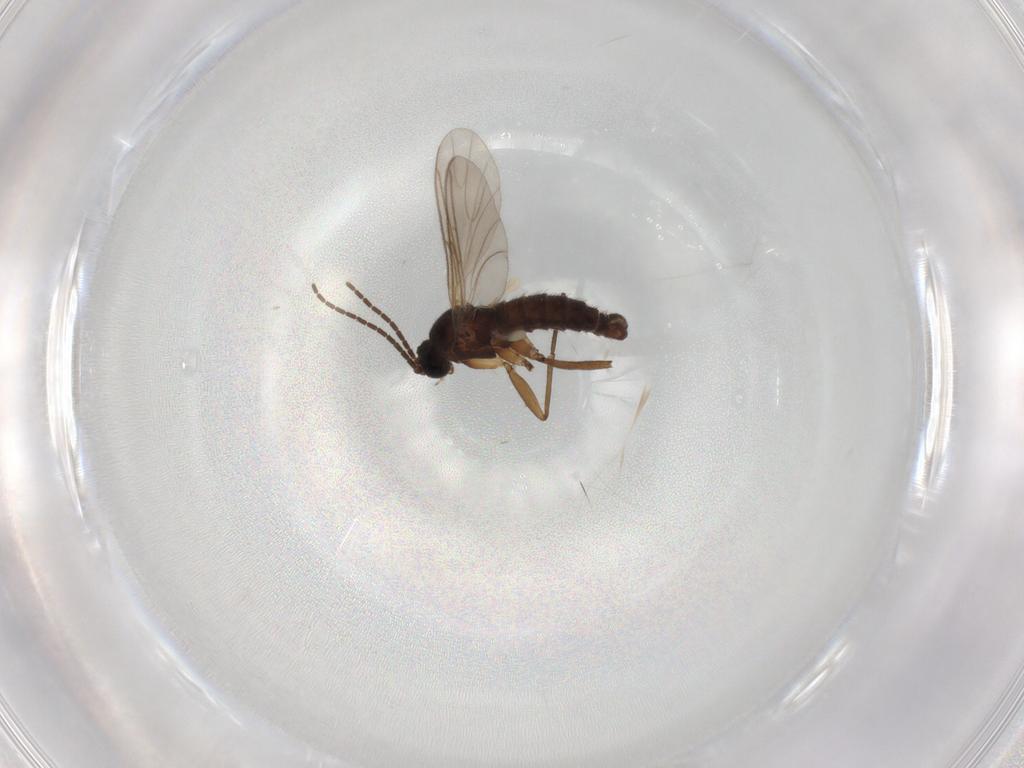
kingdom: Animalia
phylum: Arthropoda
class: Insecta
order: Diptera
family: Sciaridae
